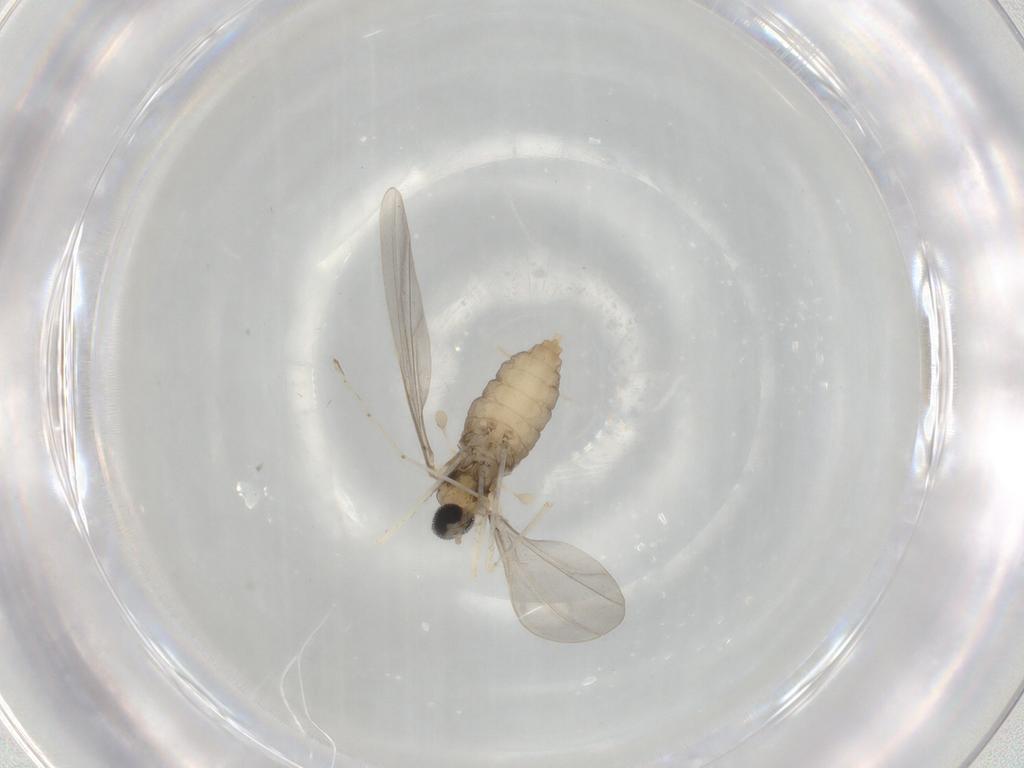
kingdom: Animalia
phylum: Arthropoda
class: Insecta
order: Diptera
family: Cecidomyiidae
